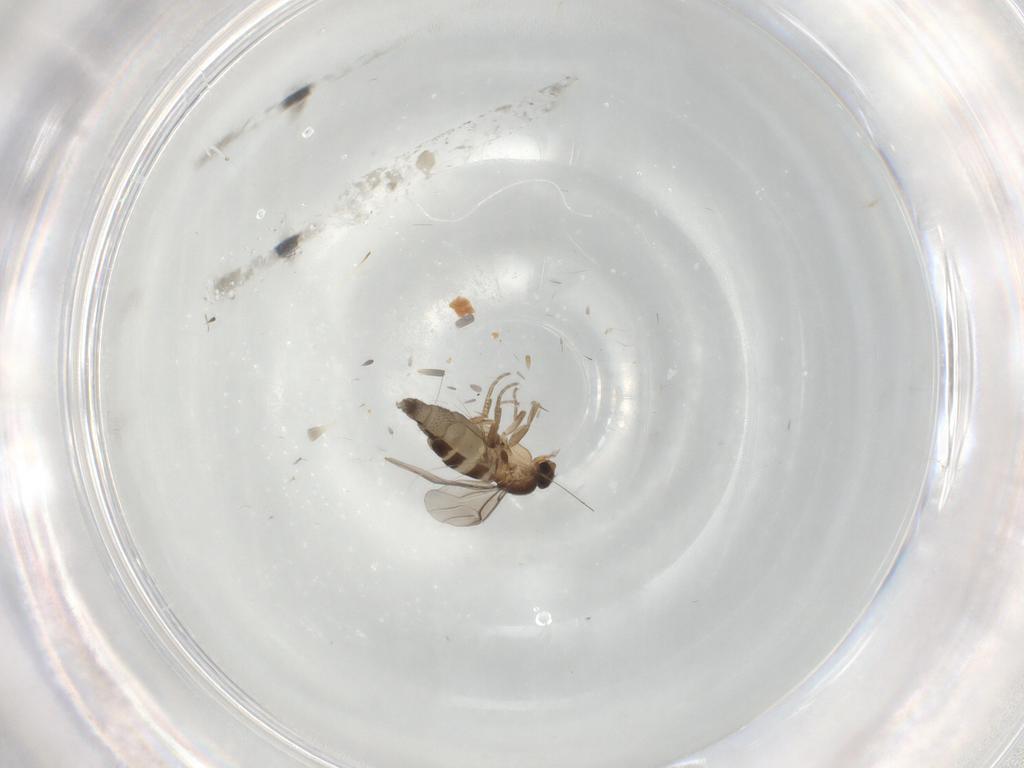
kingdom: Animalia
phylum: Arthropoda
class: Insecta
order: Diptera
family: Phoridae
